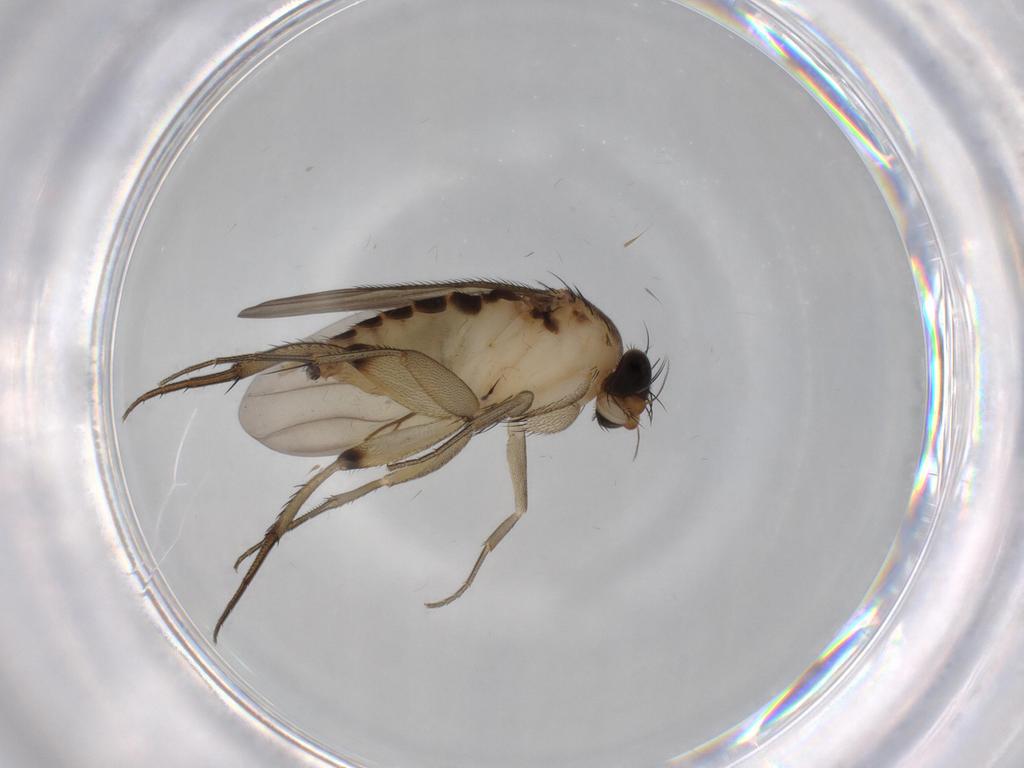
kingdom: Animalia
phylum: Arthropoda
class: Insecta
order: Diptera
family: Phoridae
